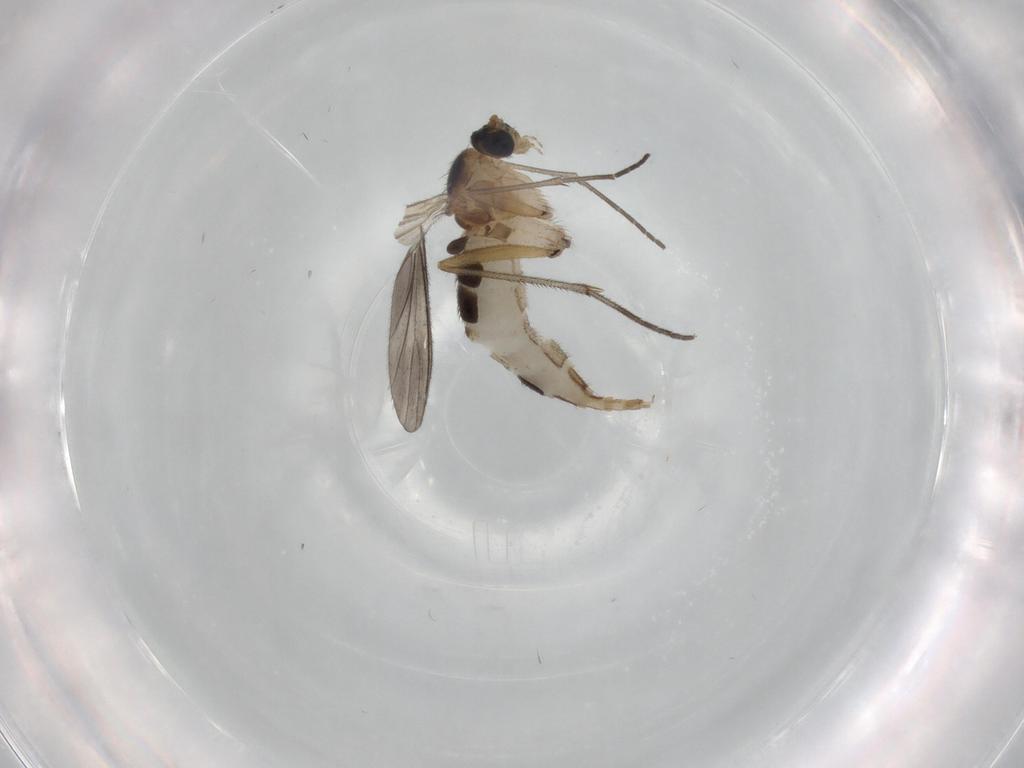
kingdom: Animalia
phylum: Arthropoda
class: Insecta
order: Diptera
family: Sciaridae
